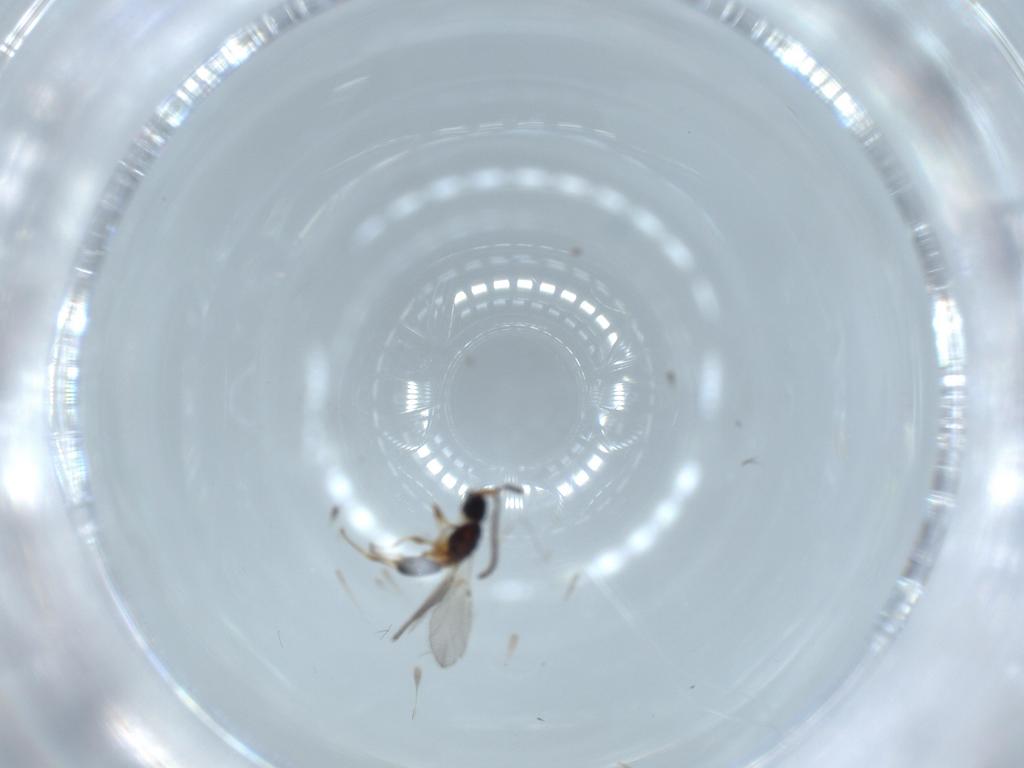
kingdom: Animalia
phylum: Arthropoda
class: Insecta
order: Hymenoptera
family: Diapriidae
